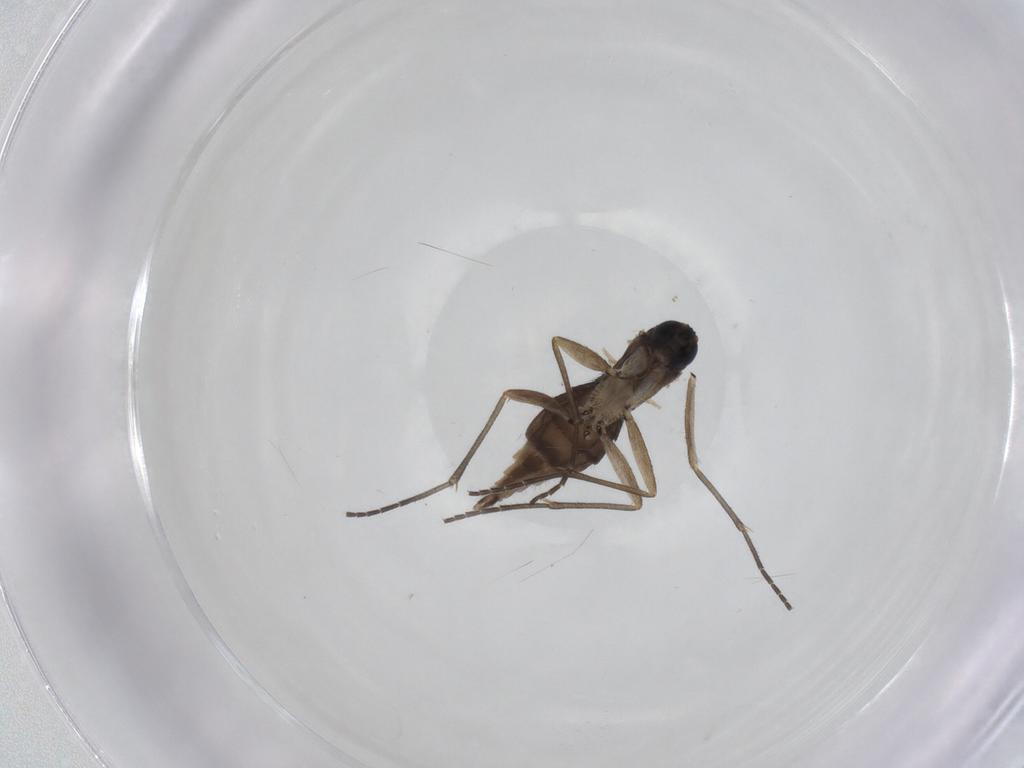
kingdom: Animalia
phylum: Arthropoda
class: Insecta
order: Diptera
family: Sciaridae
